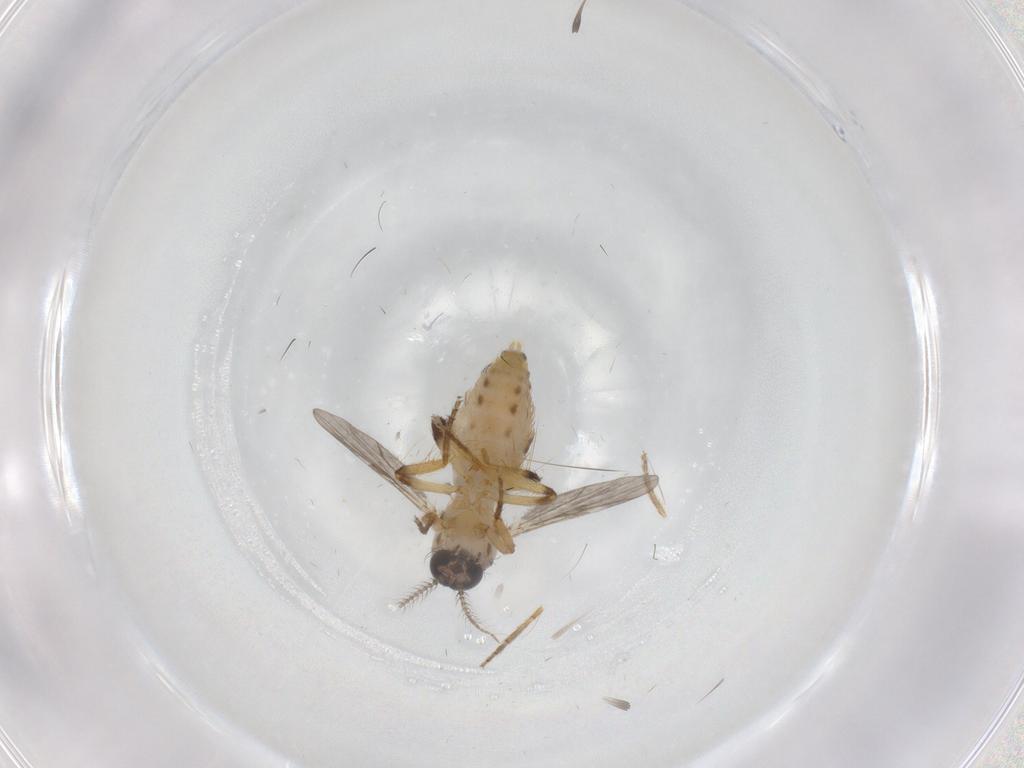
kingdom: Animalia
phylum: Arthropoda
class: Insecta
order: Diptera
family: Ceratopogonidae
